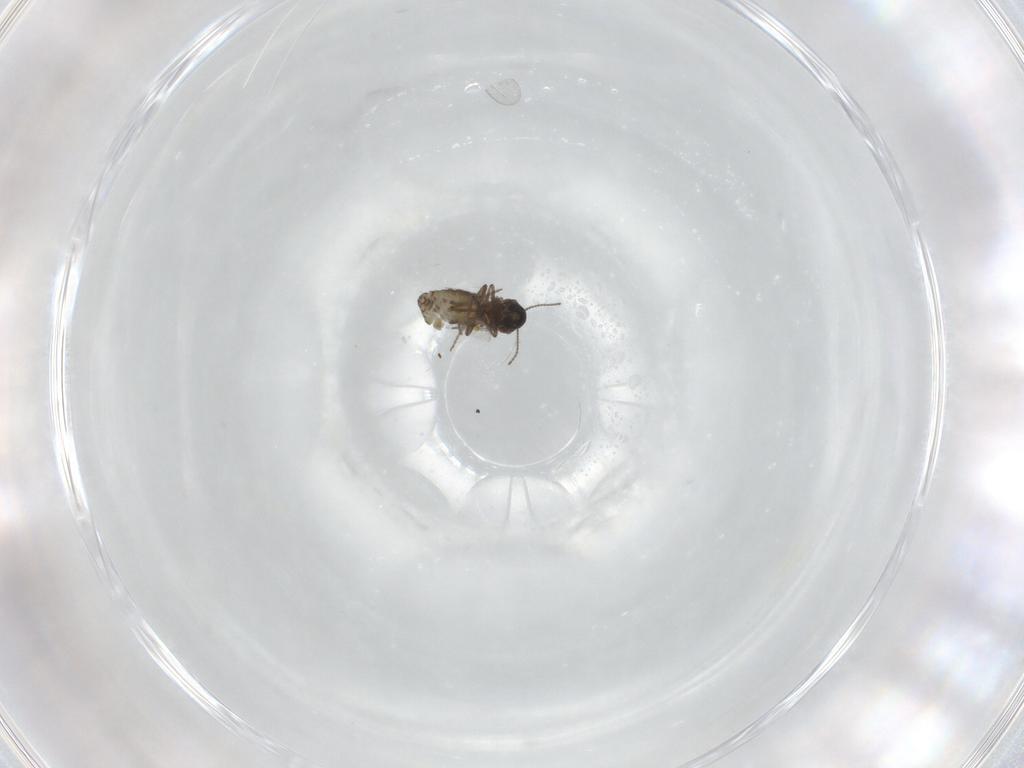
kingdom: Animalia
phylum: Arthropoda
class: Insecta
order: Diptera
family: Ceratopogonidae
